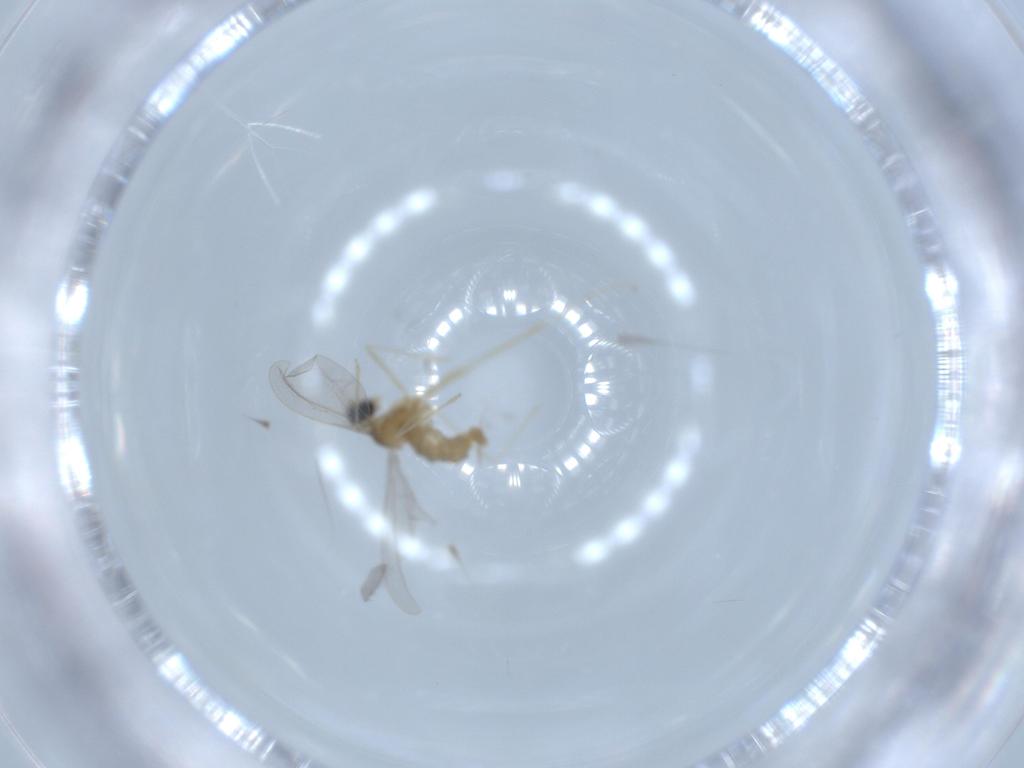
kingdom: Animalia
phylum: Arthropoda
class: Insecta
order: Diptera
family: Cecidomyiidae
